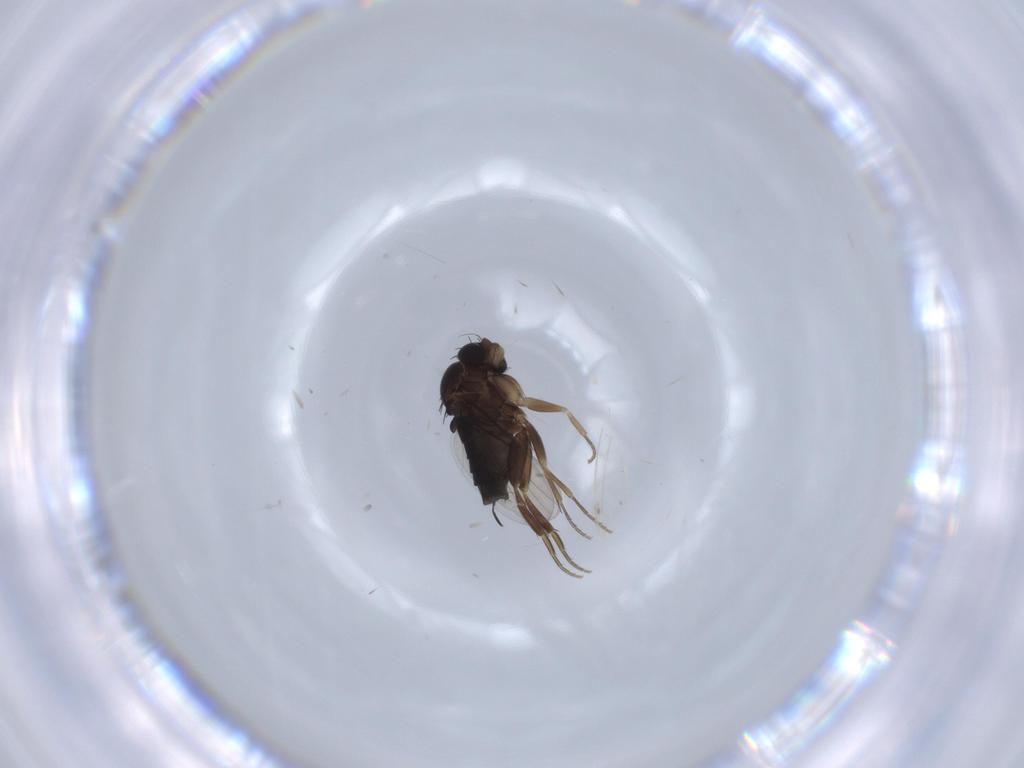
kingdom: Animalia
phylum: Arthropoda
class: Insecta
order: Diptera
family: Phoridae
